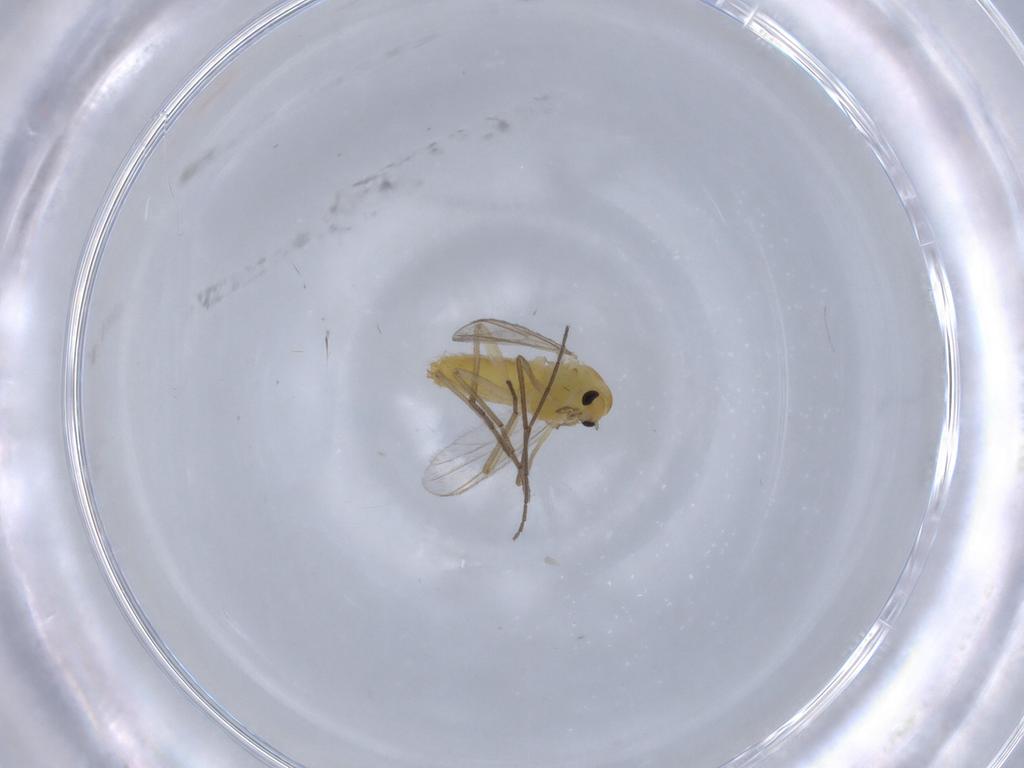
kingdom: Animalia
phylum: Arthropoda
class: Insecta
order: Diptera
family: Chironomidae
